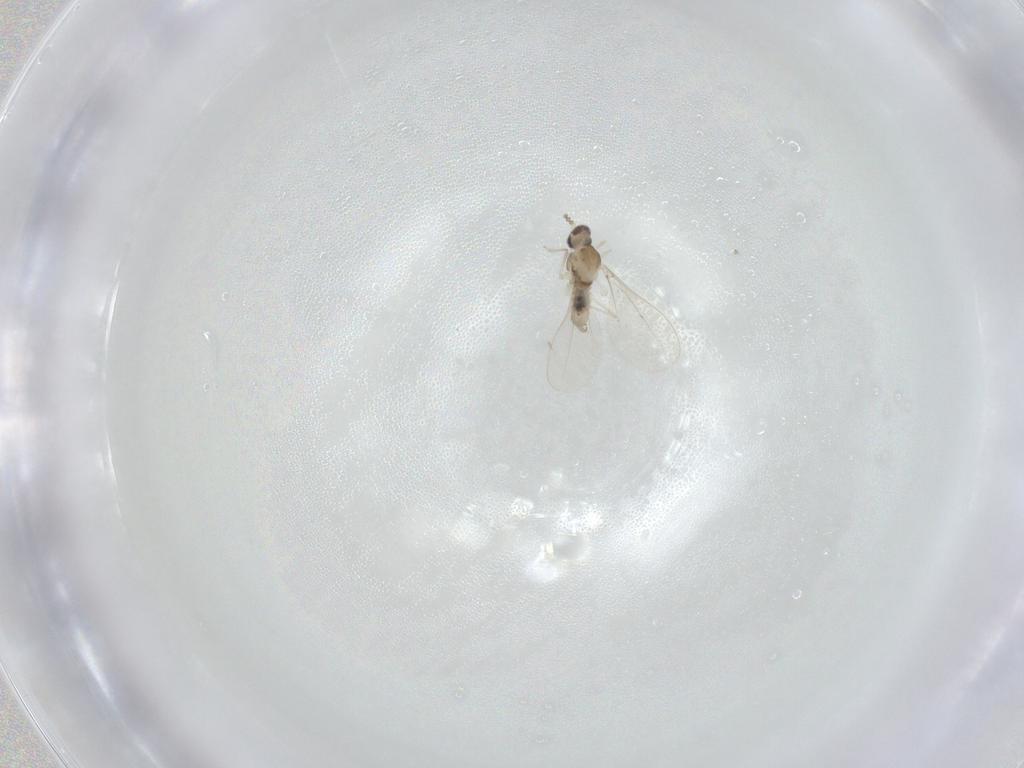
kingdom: Animalia
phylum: Arthropoda
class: Insecta
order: Diptera
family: Cecidomyiidae
